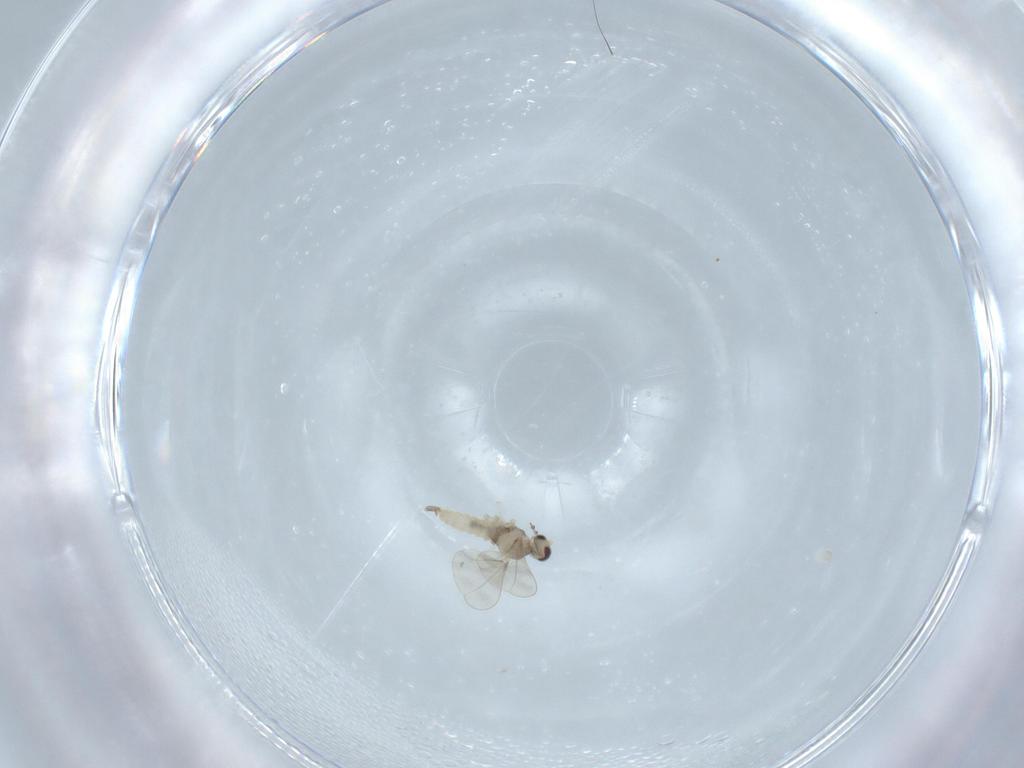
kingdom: Animalia
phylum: Arthropoda
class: Insecta
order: Diptera
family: Cecidomyiidae
